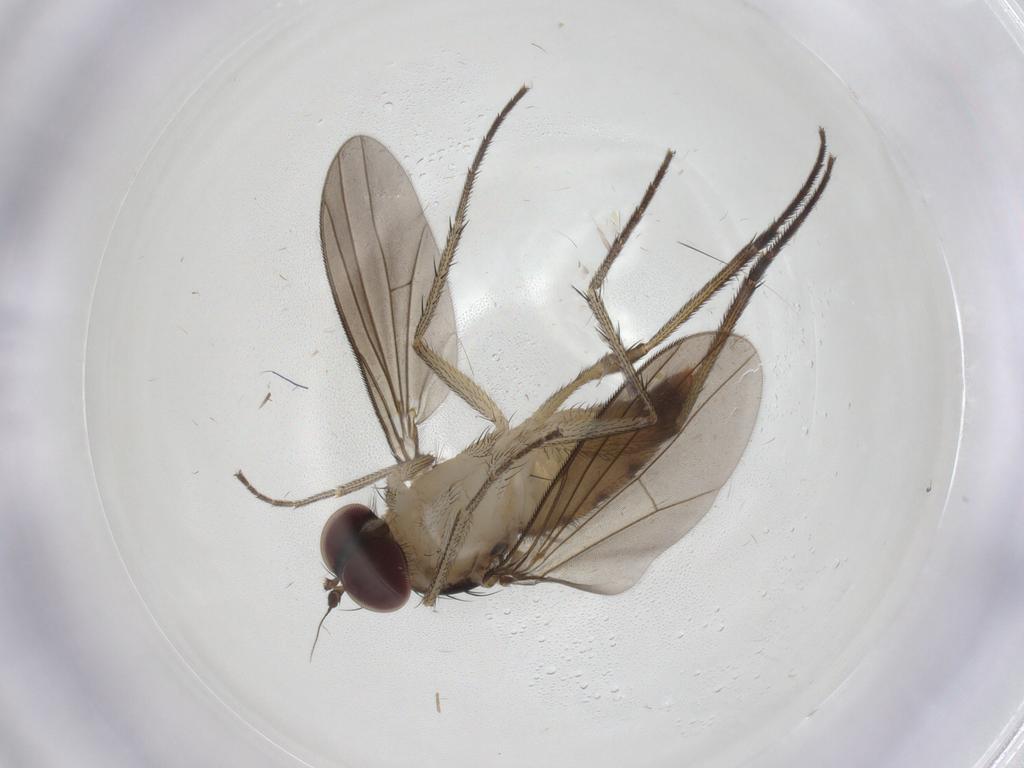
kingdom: Animalia
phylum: Arthropoda
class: Insecta
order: Diptera
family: Dolichopodidae
